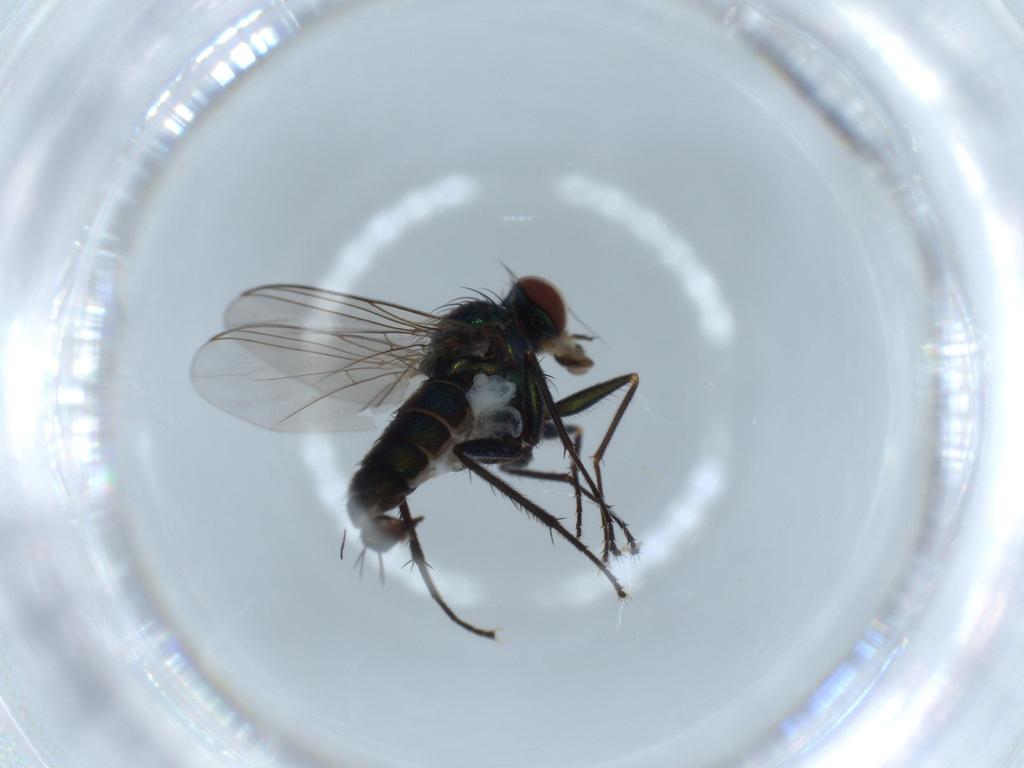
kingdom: Animalia
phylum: Arthropoda
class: Insecta
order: Diptera
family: Dolichopodidae
